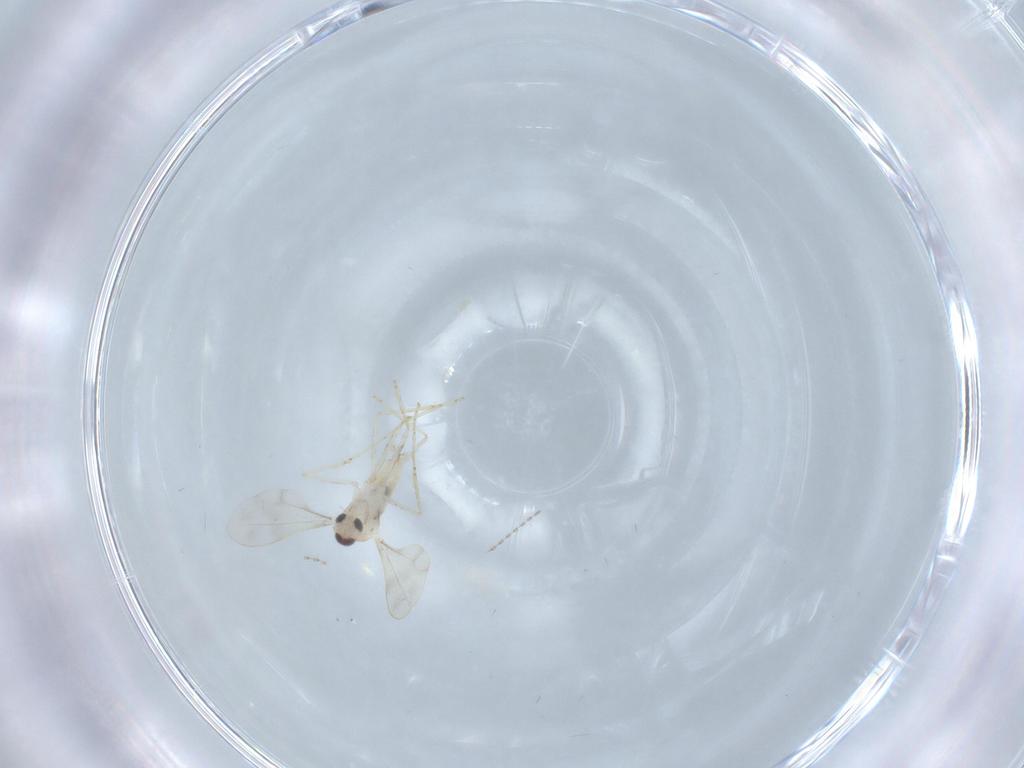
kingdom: Animalia
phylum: Arthropoda
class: Insecta
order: Diptera
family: Cecidomyiidae
